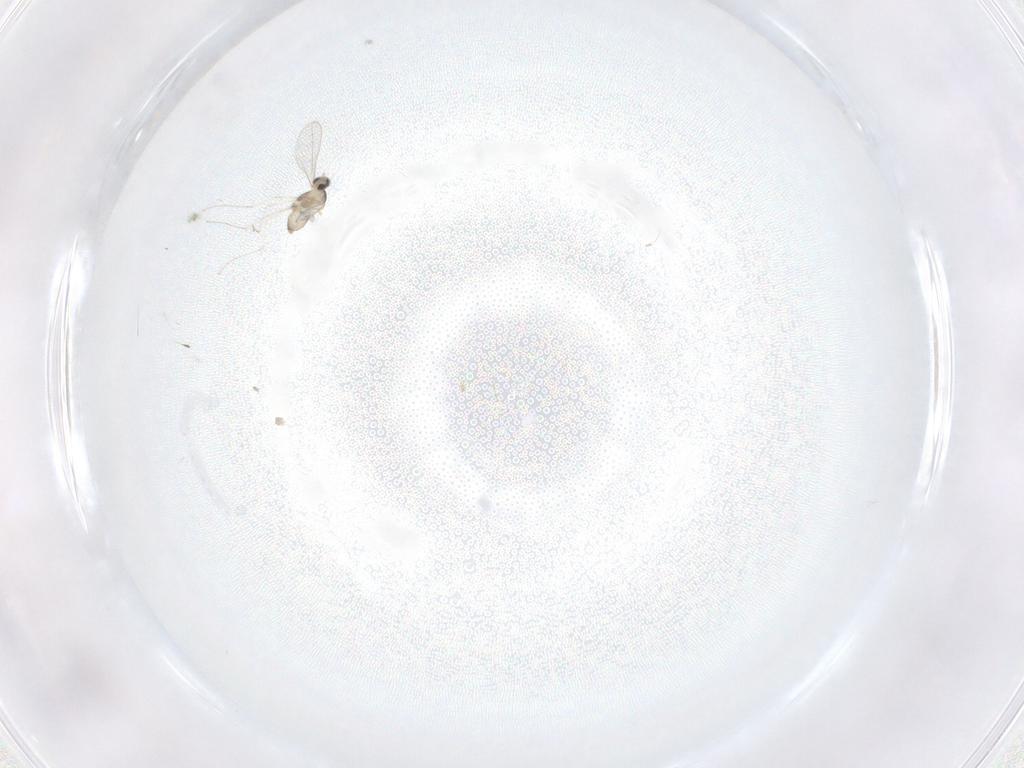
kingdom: Animalia
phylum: Arthropoda
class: Insecta
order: Diptera
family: Cecidomyiidae
